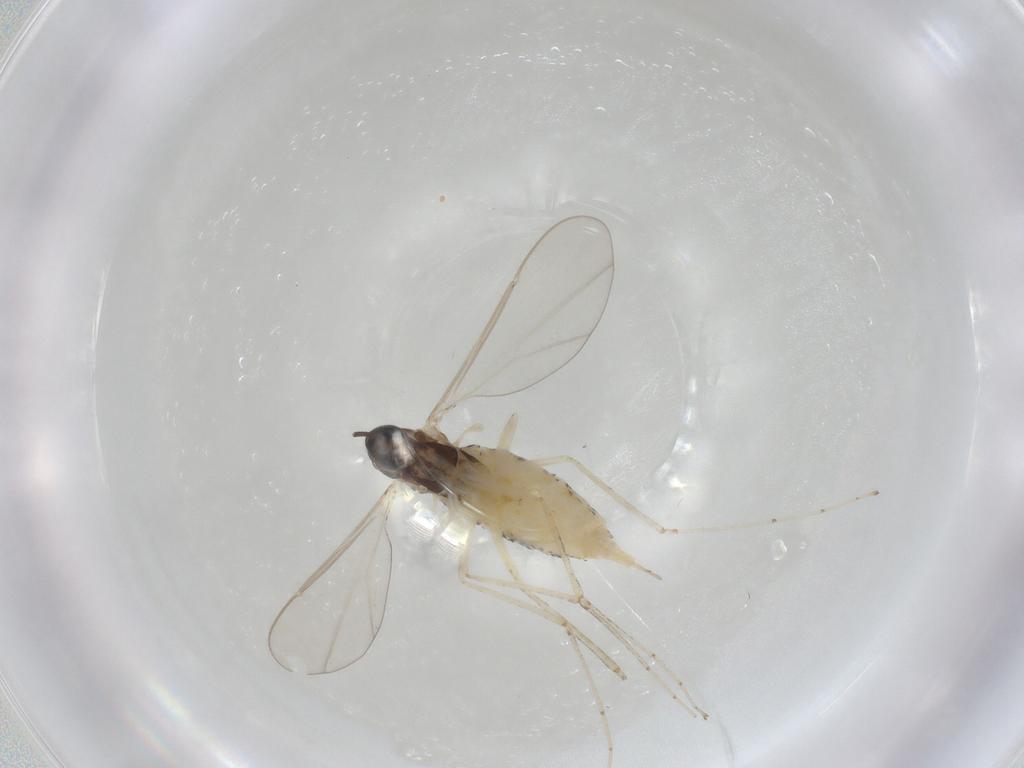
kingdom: Animalia
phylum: Arthropoda
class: Insecta
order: Diptera
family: Cecidomyiidae
